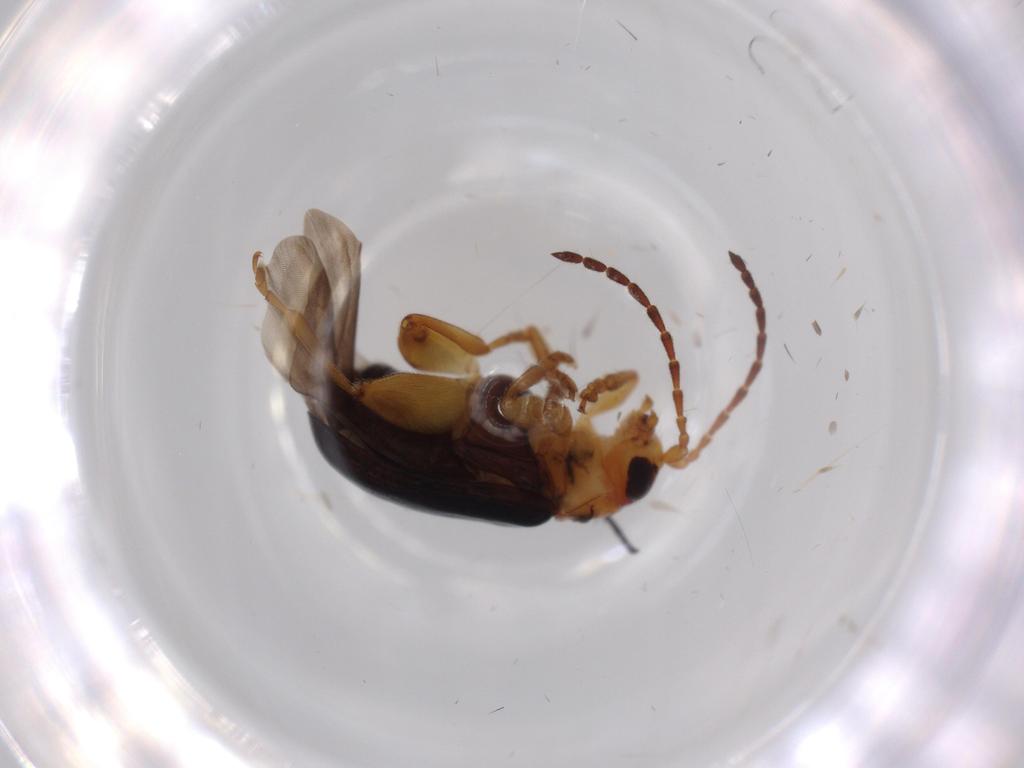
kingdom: Animalia
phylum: Arthropoda
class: Insecta
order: Coleoptera
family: Chrysomelidae
